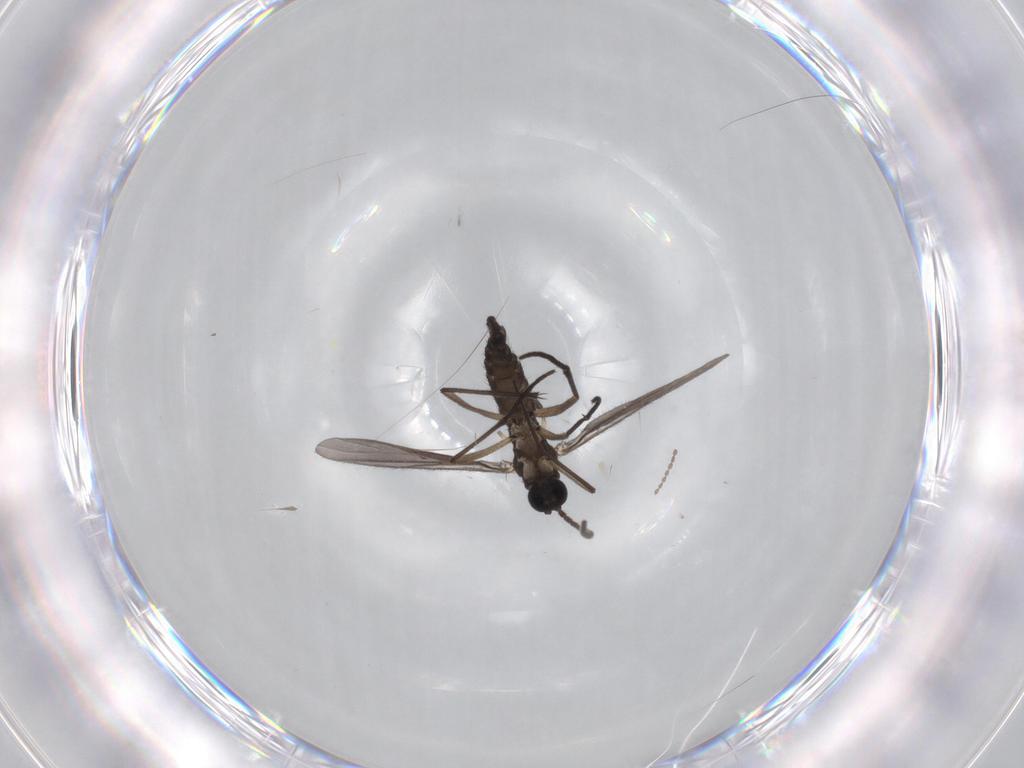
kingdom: Animalia
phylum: Arthropoda
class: Insecta
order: Diptera
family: Sciaridae
